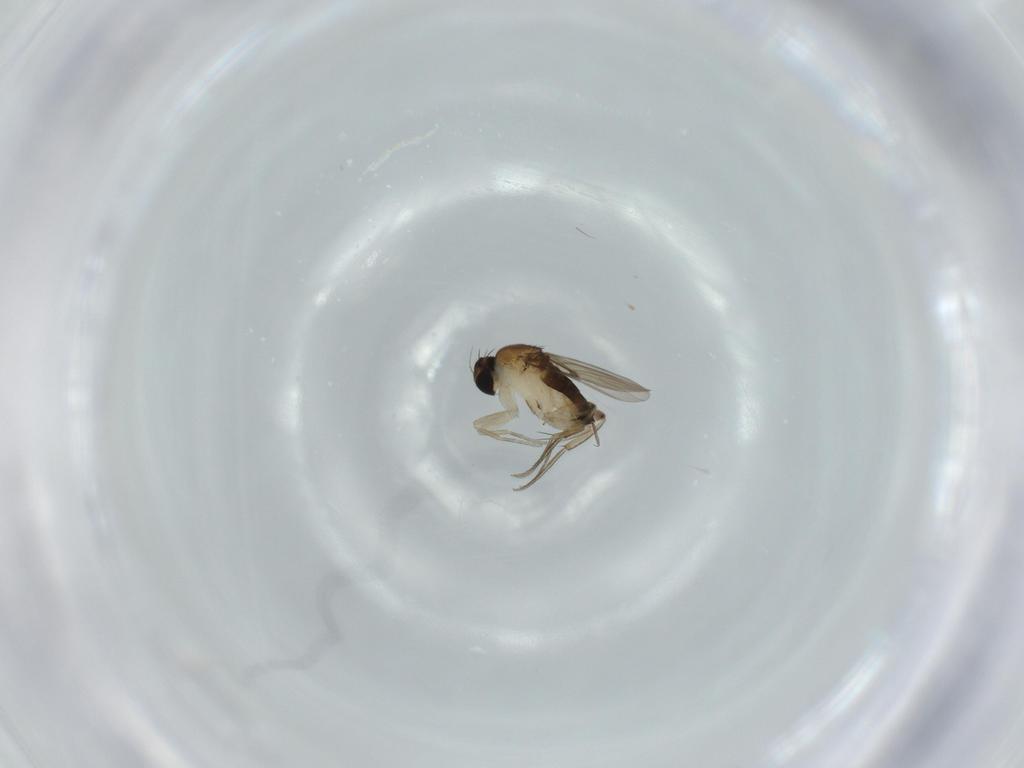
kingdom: Animalia
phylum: Arthropoda
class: Insecta
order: Diptera
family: Phoridae
